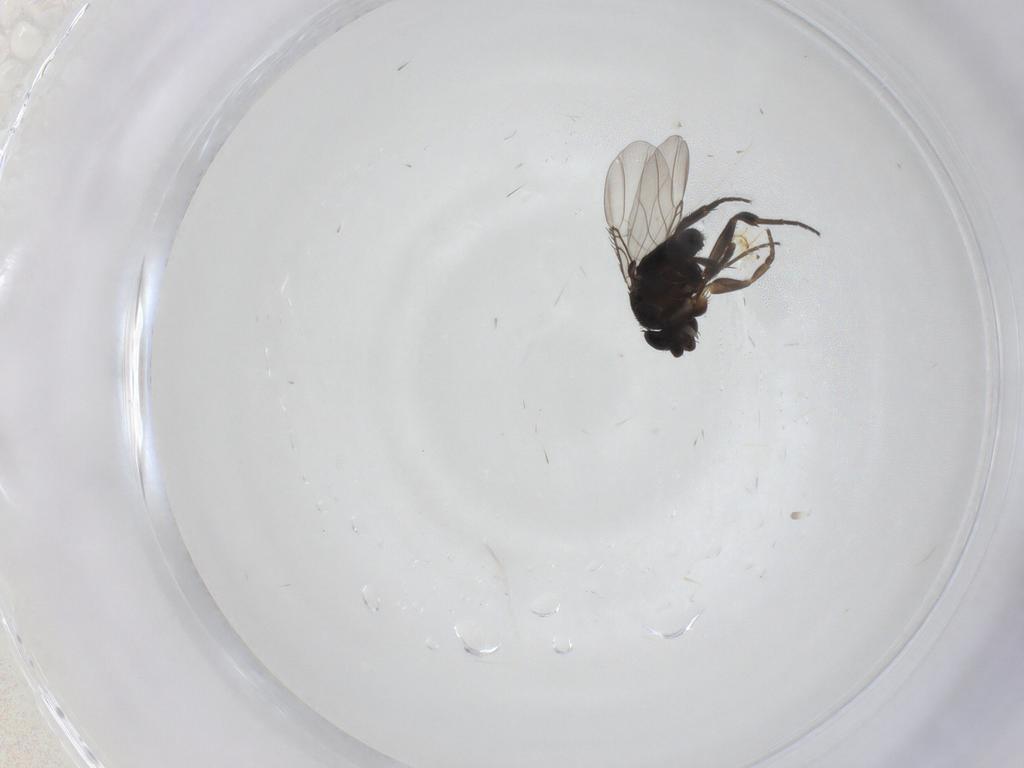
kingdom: Animalia
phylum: Arthropoda
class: Insecta
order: Diptera
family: Phoridae
